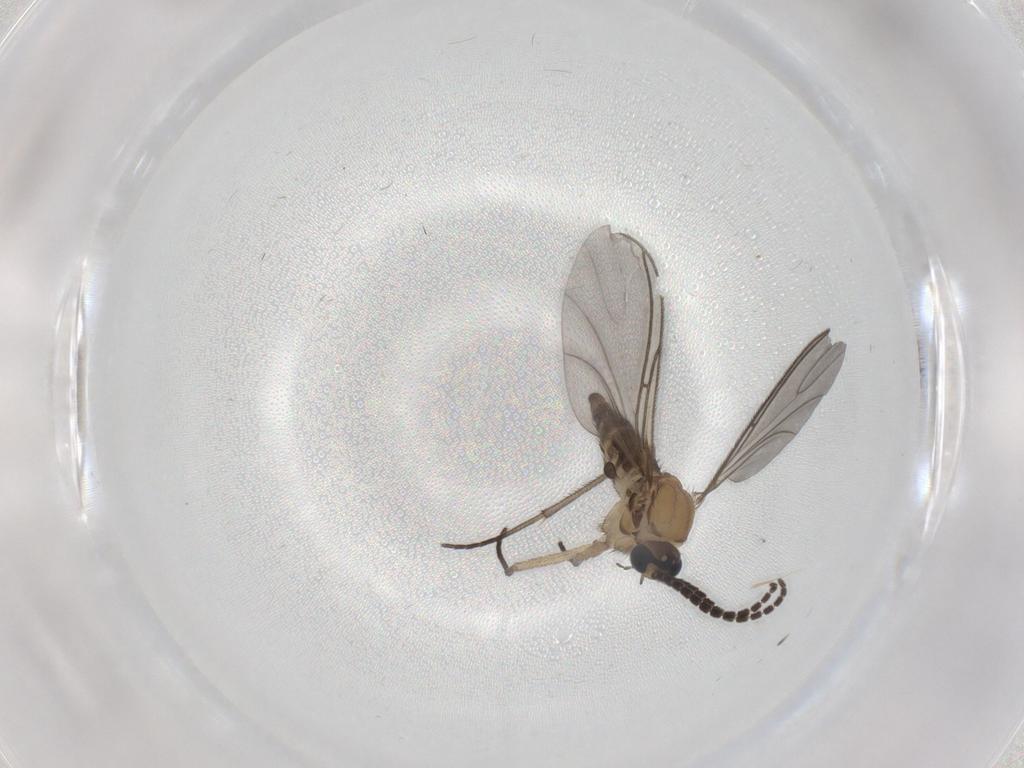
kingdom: Animalia
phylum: Arthropoda
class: Insecta
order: Diptera
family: Sciaridae
